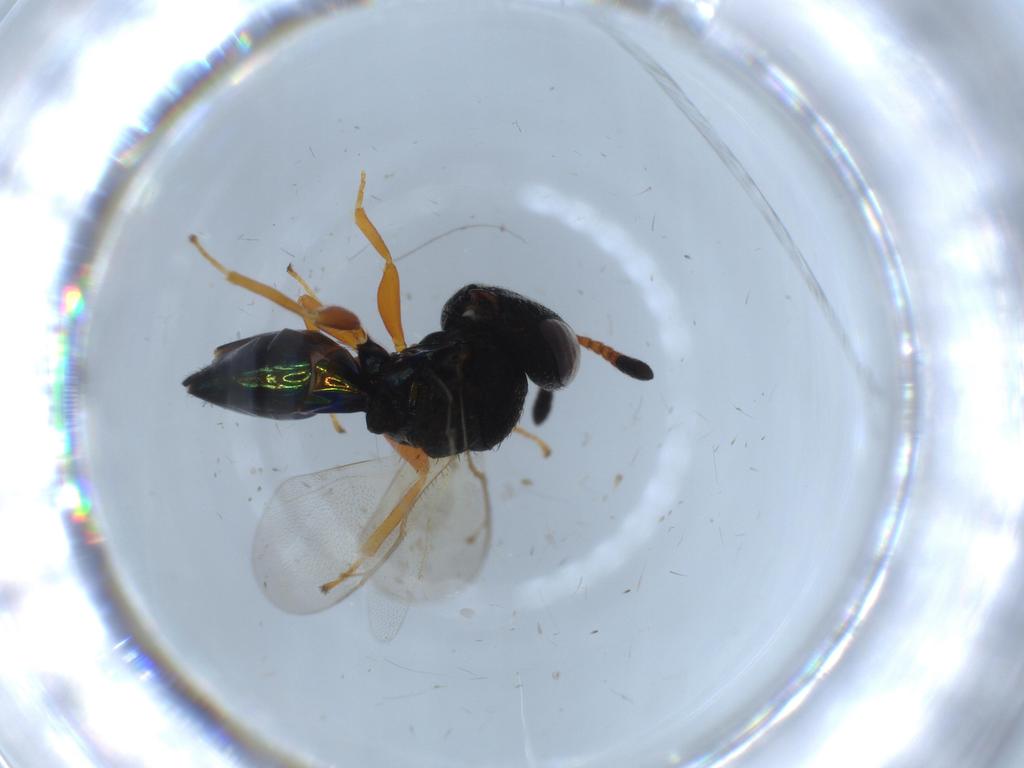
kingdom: Animalia
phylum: Arthropoda
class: Insecta
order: Hymenoptera
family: Pteromalidae
